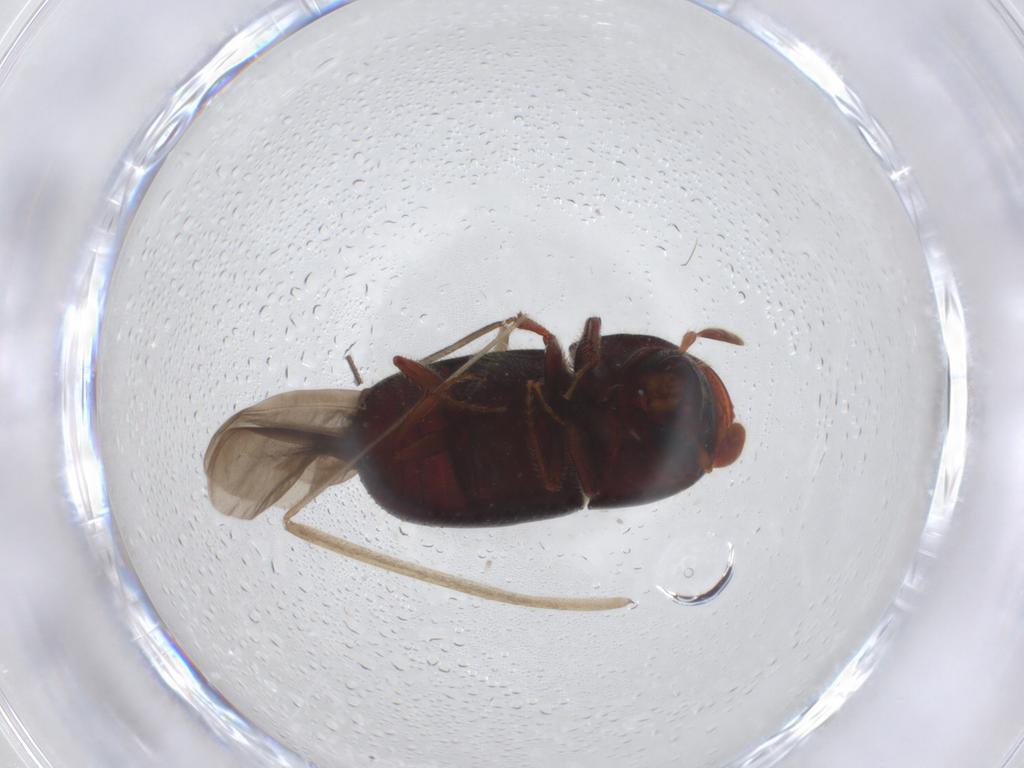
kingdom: Animalia
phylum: Arthropoda
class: Insecta
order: Coleoptera
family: Curculionidae
